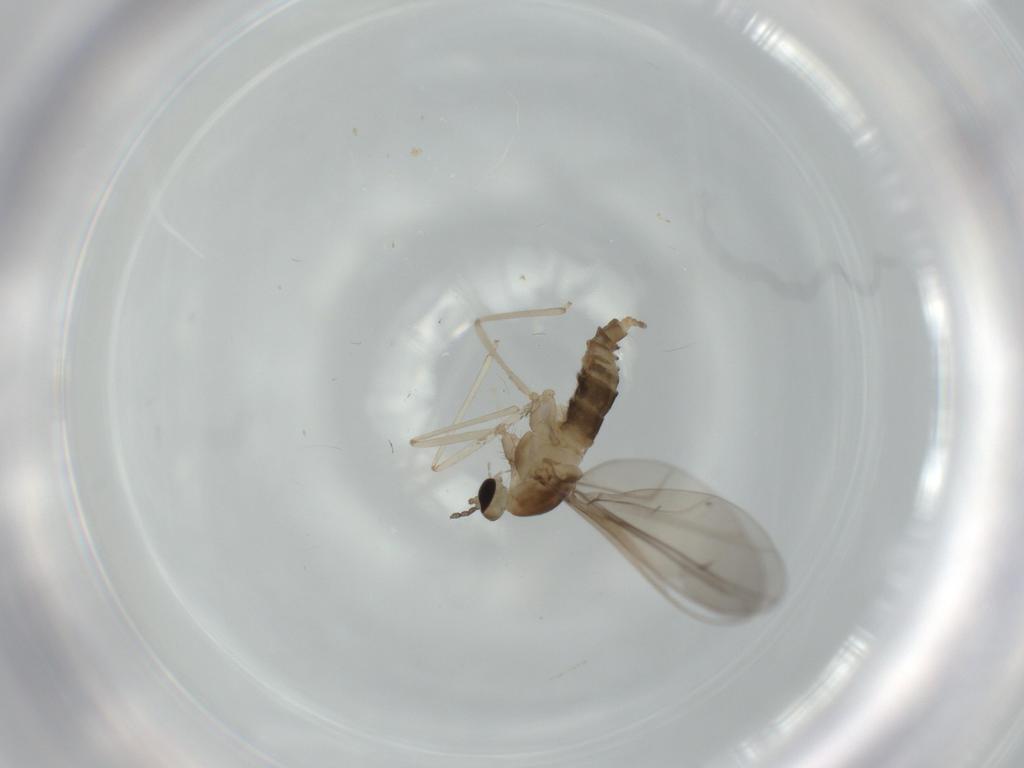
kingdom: Animalia
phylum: Arthropoda
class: Insecta
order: Diptera
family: Cecidomyiidae
